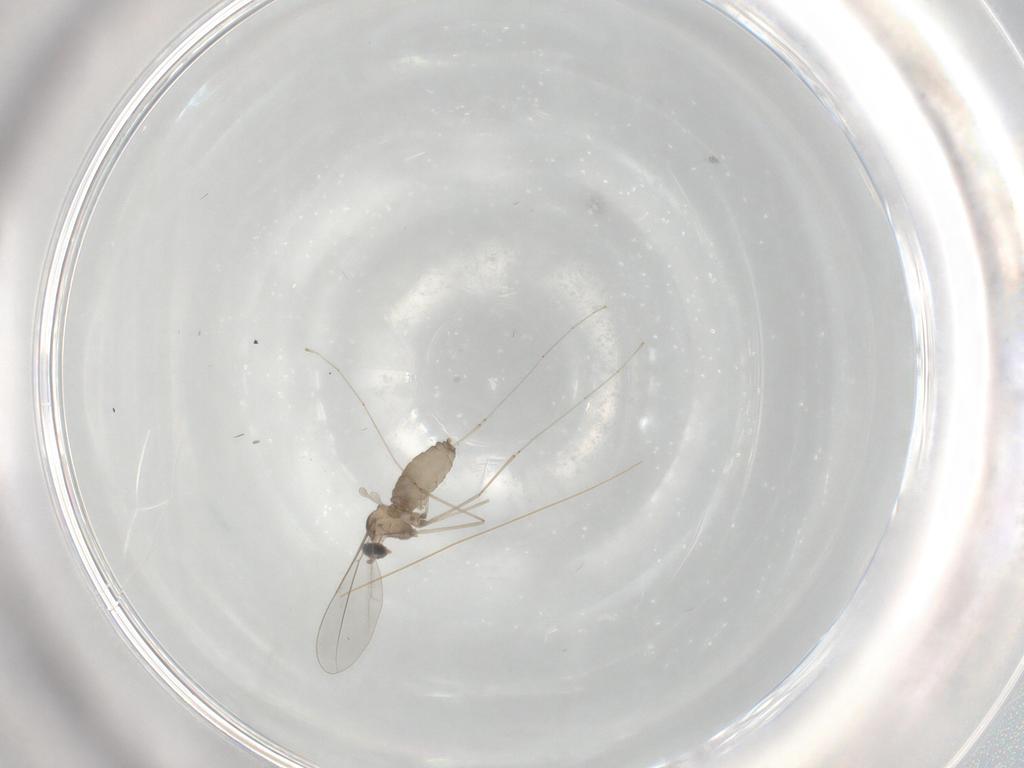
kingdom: Animalia
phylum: Arthropoda
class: Insecta
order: Diptera
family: Cecidomyiidae
